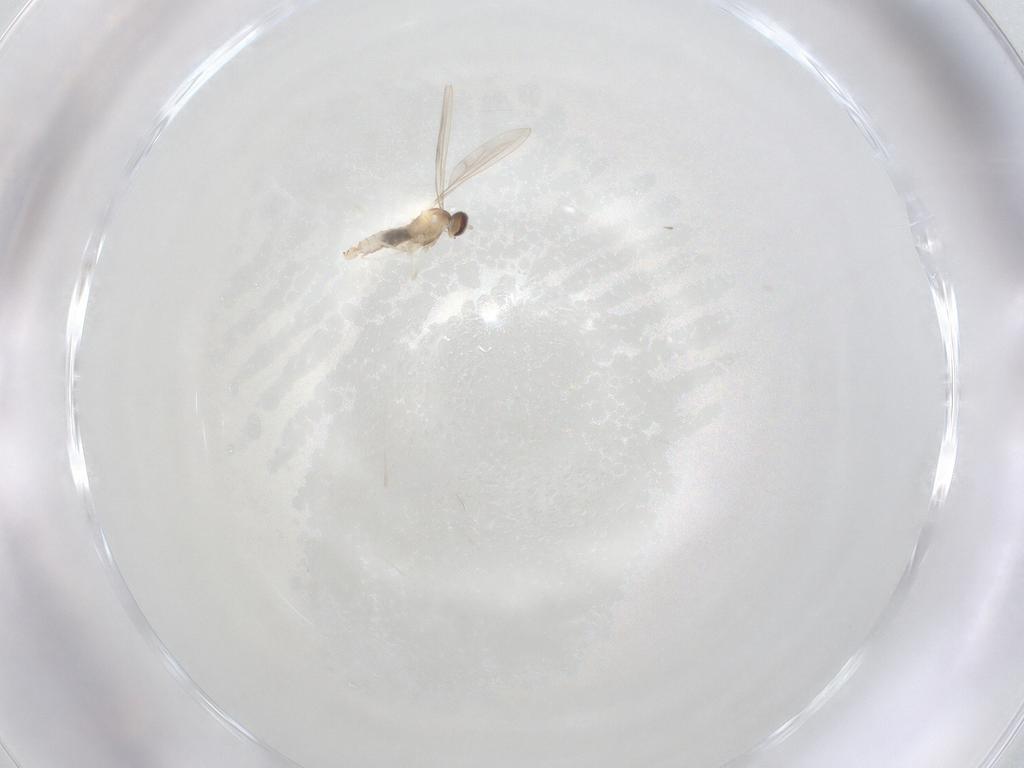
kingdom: Animalia
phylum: Arthropoda
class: Insecta
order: Diptera
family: Cecidomyiidae
